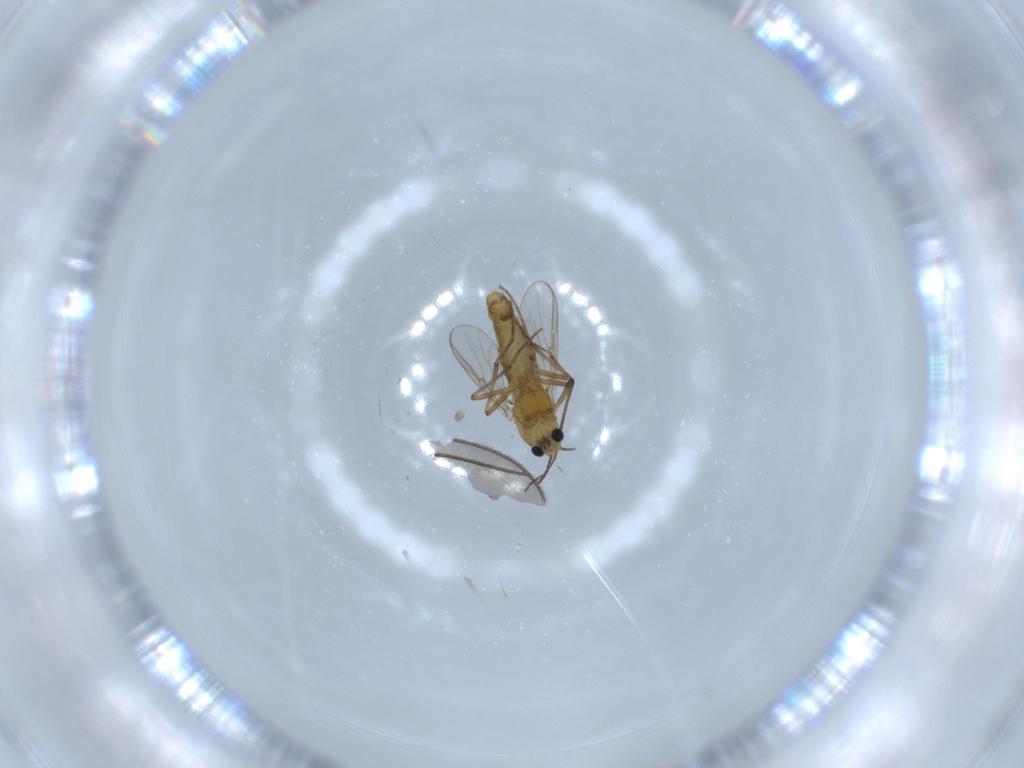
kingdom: Animalia
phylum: Arthropoda
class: Insecta
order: Diptera
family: Chironomidae
